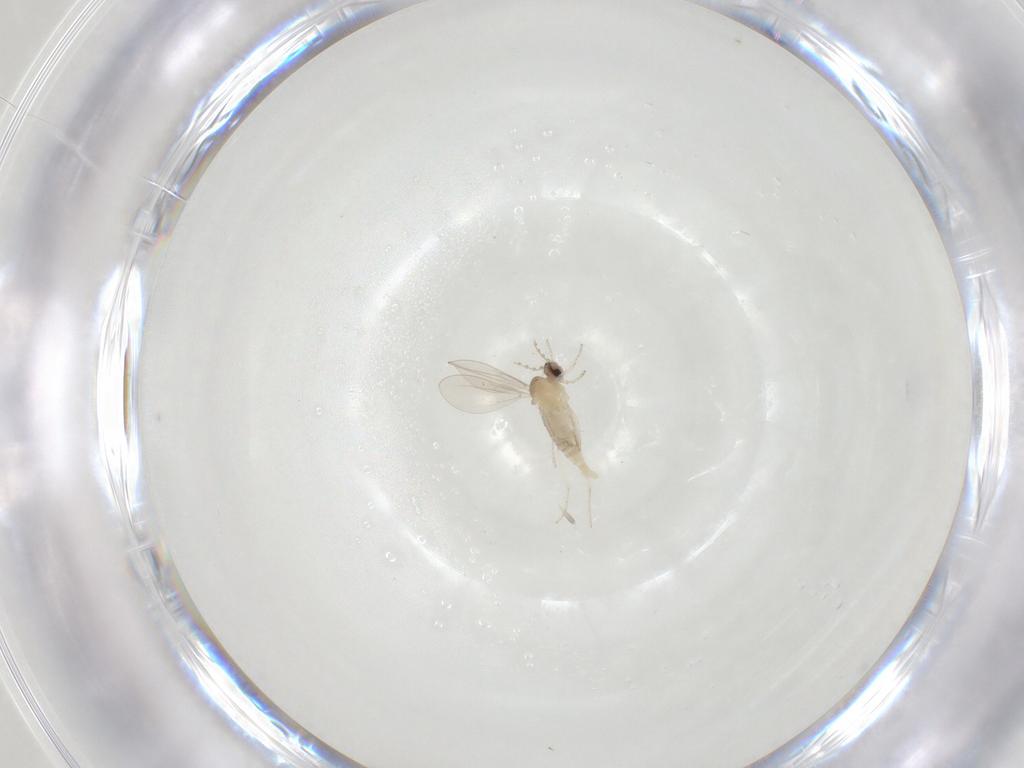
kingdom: Animalia
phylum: Arthropoda
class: Insecta
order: Diptera
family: Cecidomyiidae
